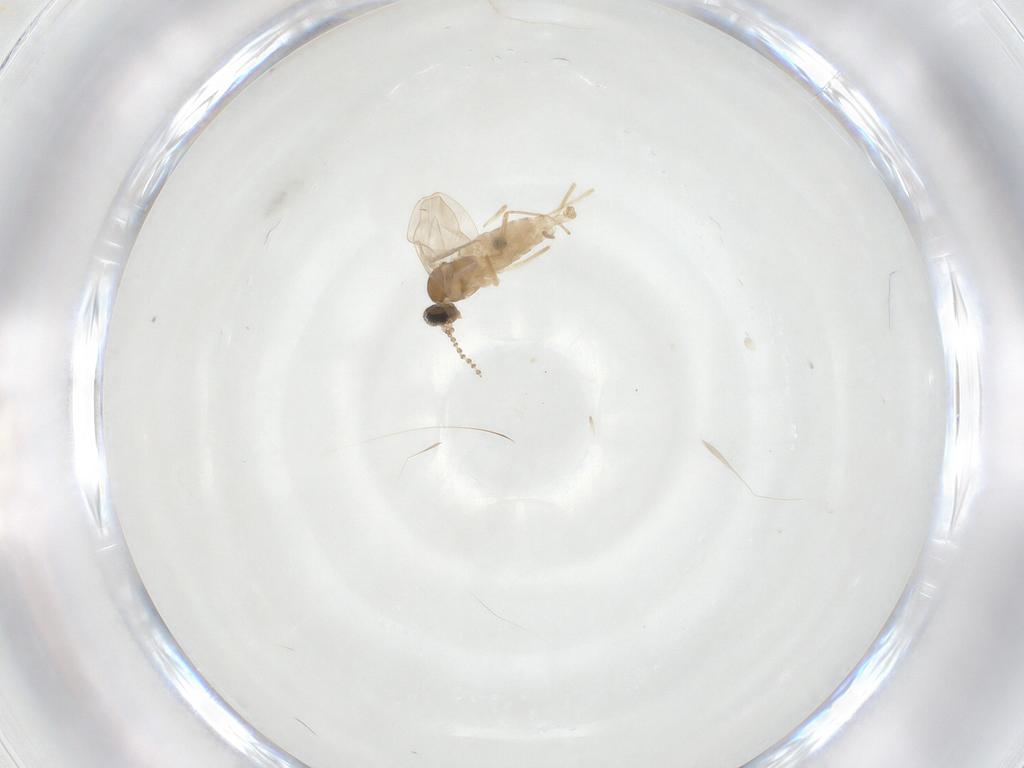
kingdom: Animalia
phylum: Arthropoda
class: Insecta
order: Diptera
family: Cecidomyiidae
